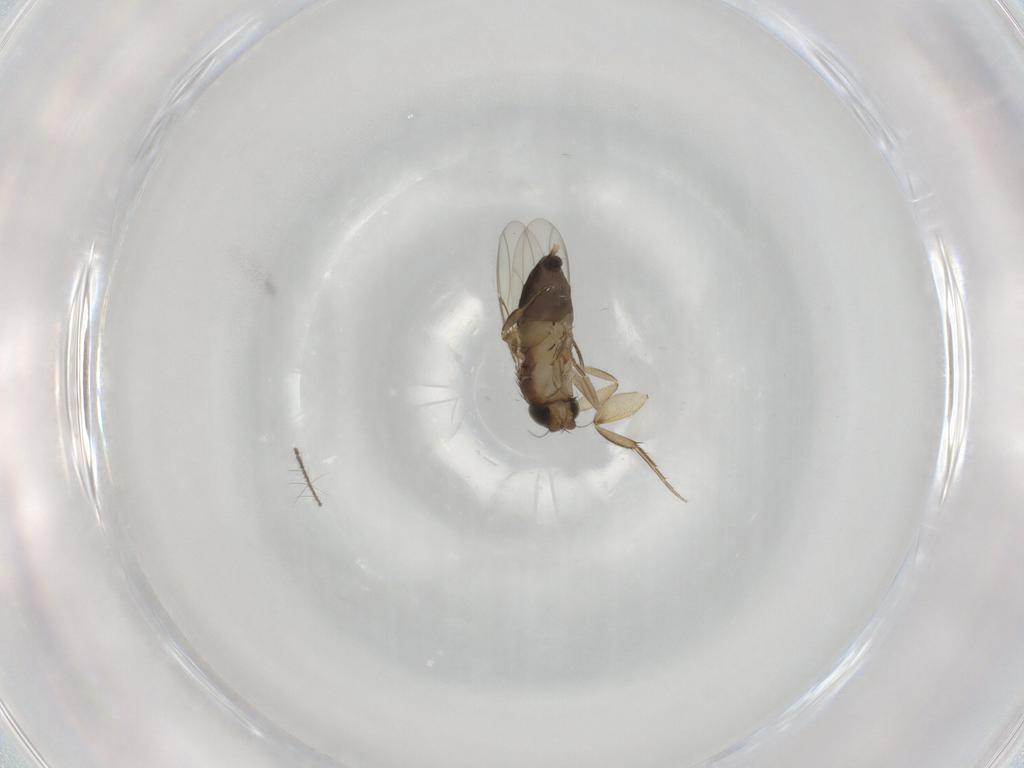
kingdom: Animalia
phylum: Arthropoda
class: Insecta
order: Diptera
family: Phoridae
